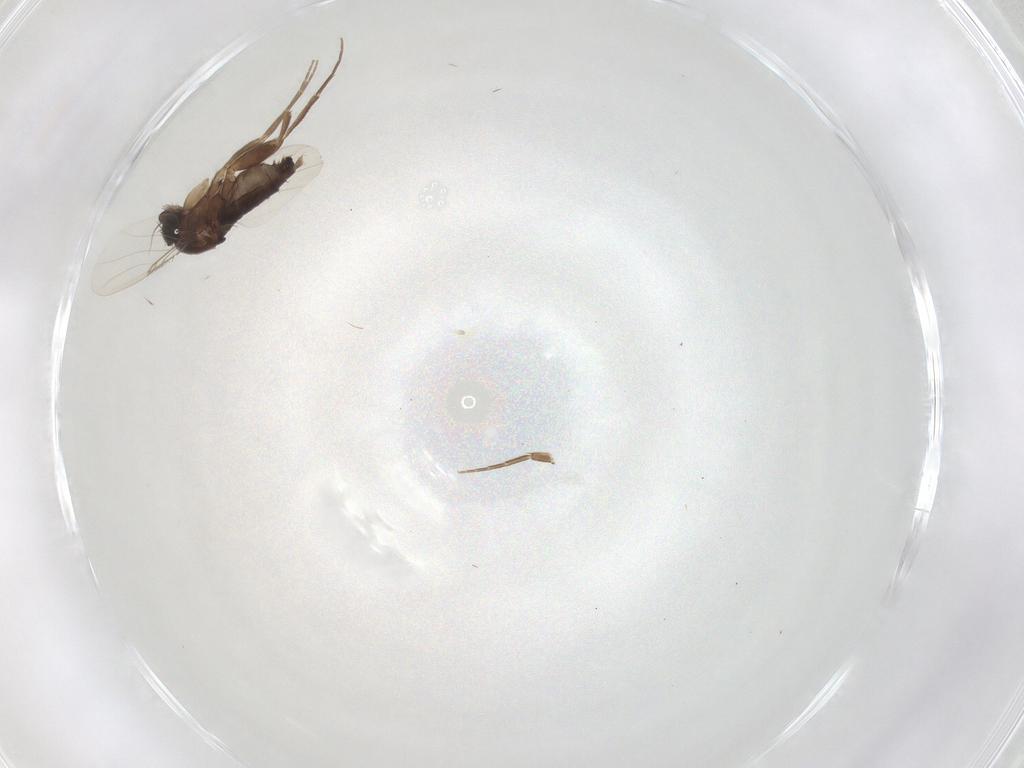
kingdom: Animalia
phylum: Arthropoda
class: Insecta
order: Diptera
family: Phoridae
